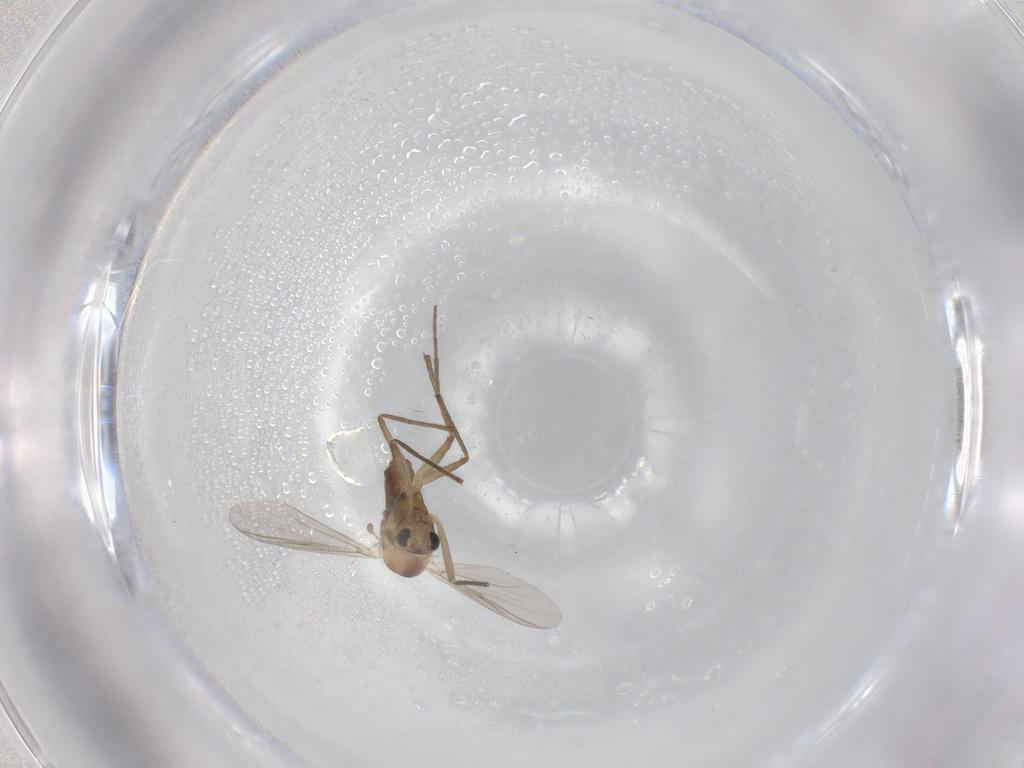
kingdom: Animalia
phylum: Arthropoda
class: Insecta
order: Diptera
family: Chironomidae
